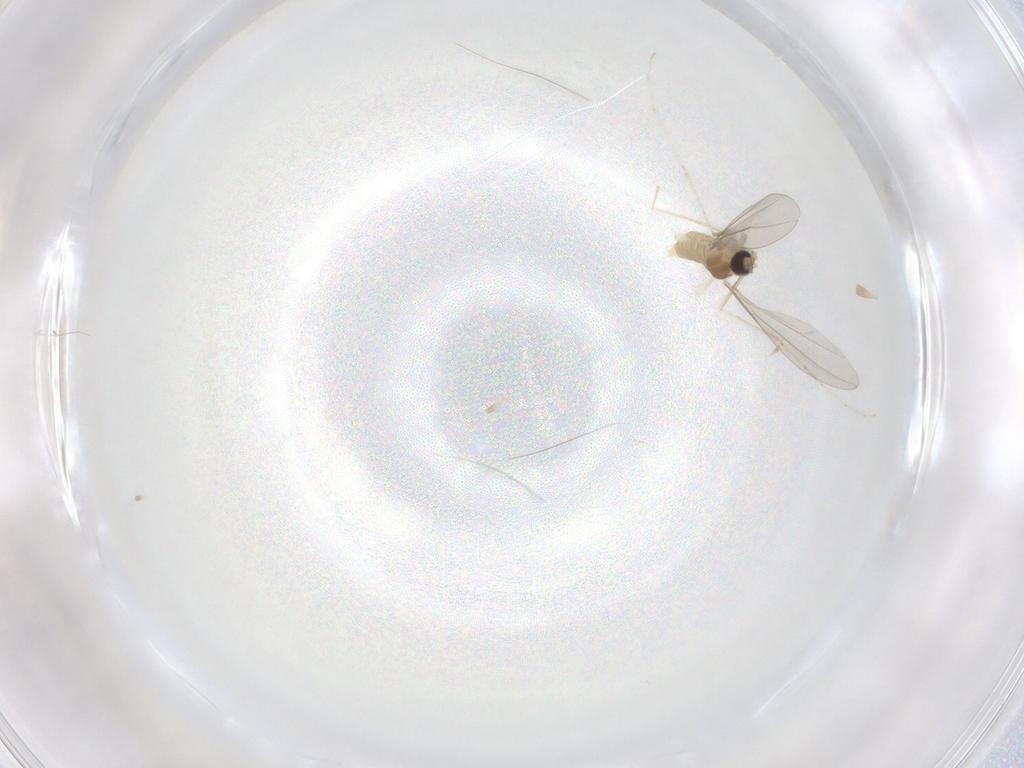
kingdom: Animalia
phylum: Arthropoda
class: Insecta
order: Diptera
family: Cecidomyiidae
